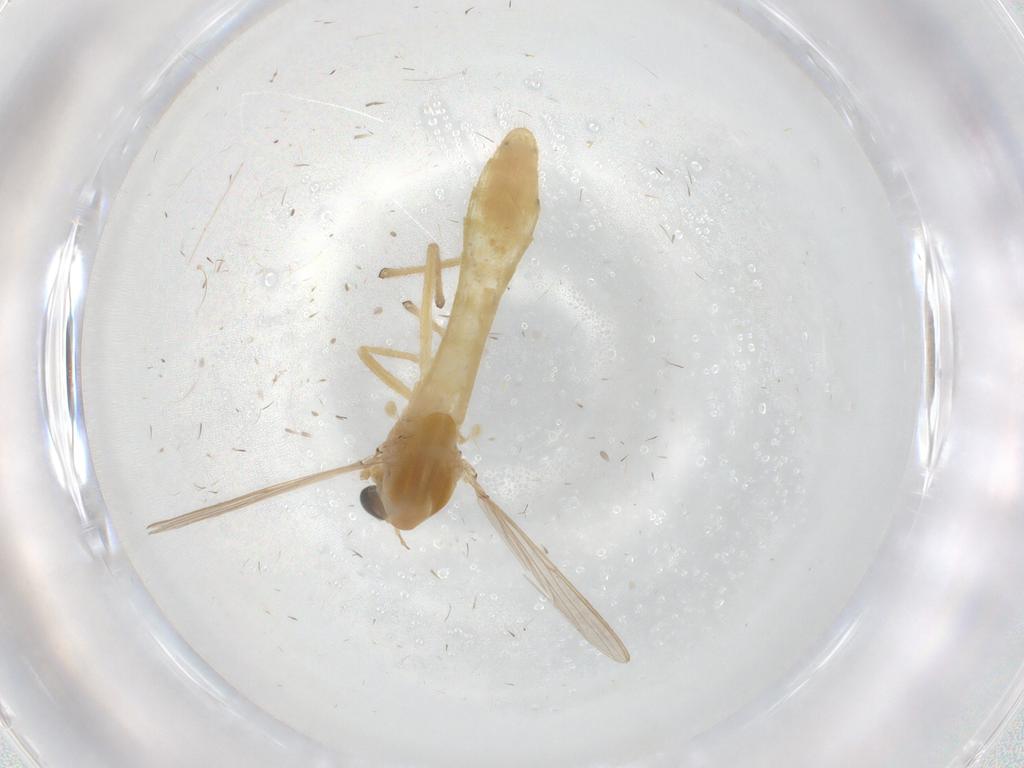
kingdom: Animalia
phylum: Arthropoda
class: Insecta
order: Diptera
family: Chironomidae
